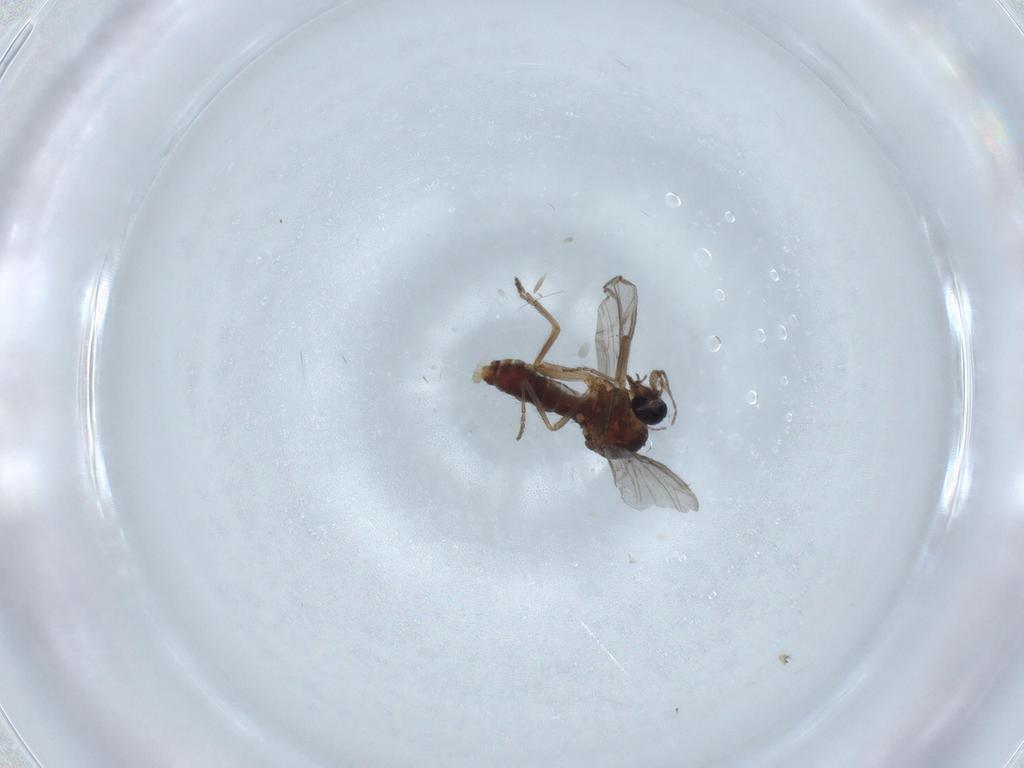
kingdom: Animalia
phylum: Arthropoda
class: Insecta
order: Diptera
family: Ceratopogonidae
